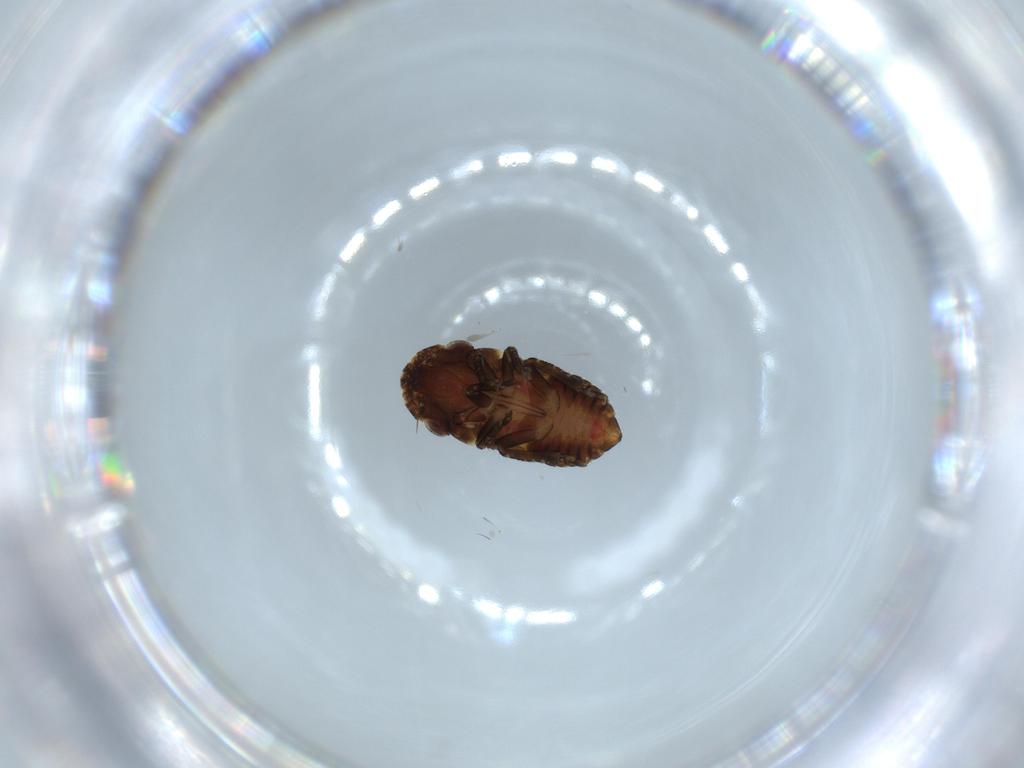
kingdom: Animalia
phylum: Arthropoda
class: Insecta
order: Hemiptera
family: Cicadellidae
